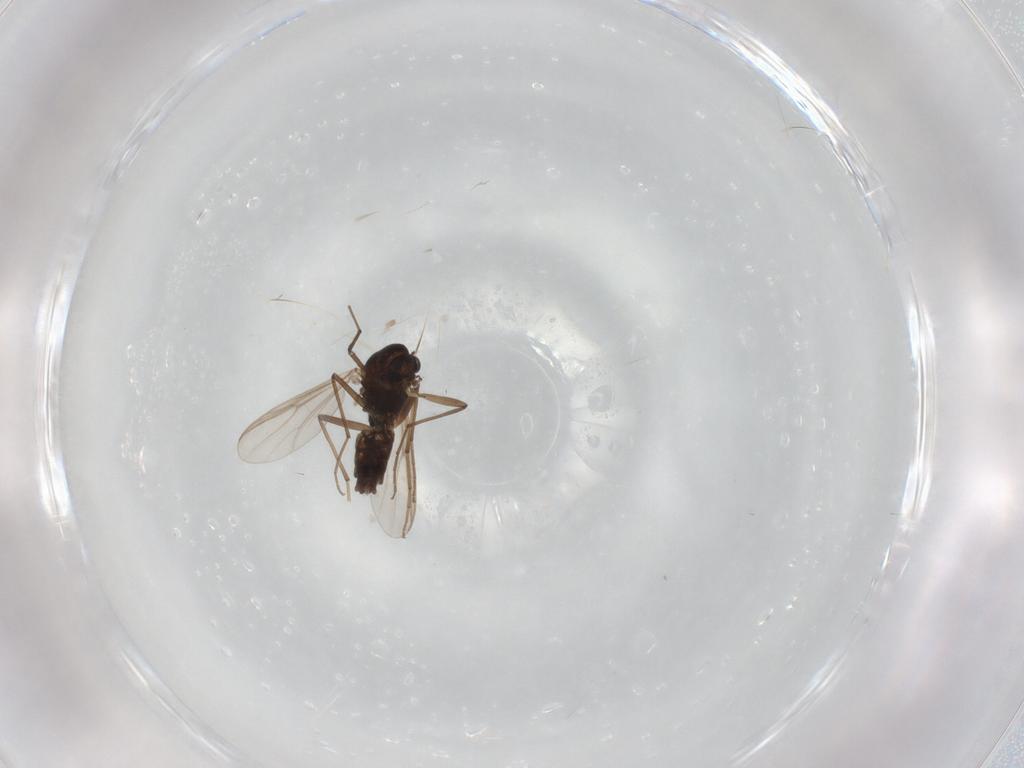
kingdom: Animalia
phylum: Arthropoda
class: Insecta
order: Diptera
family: Chironomidae
